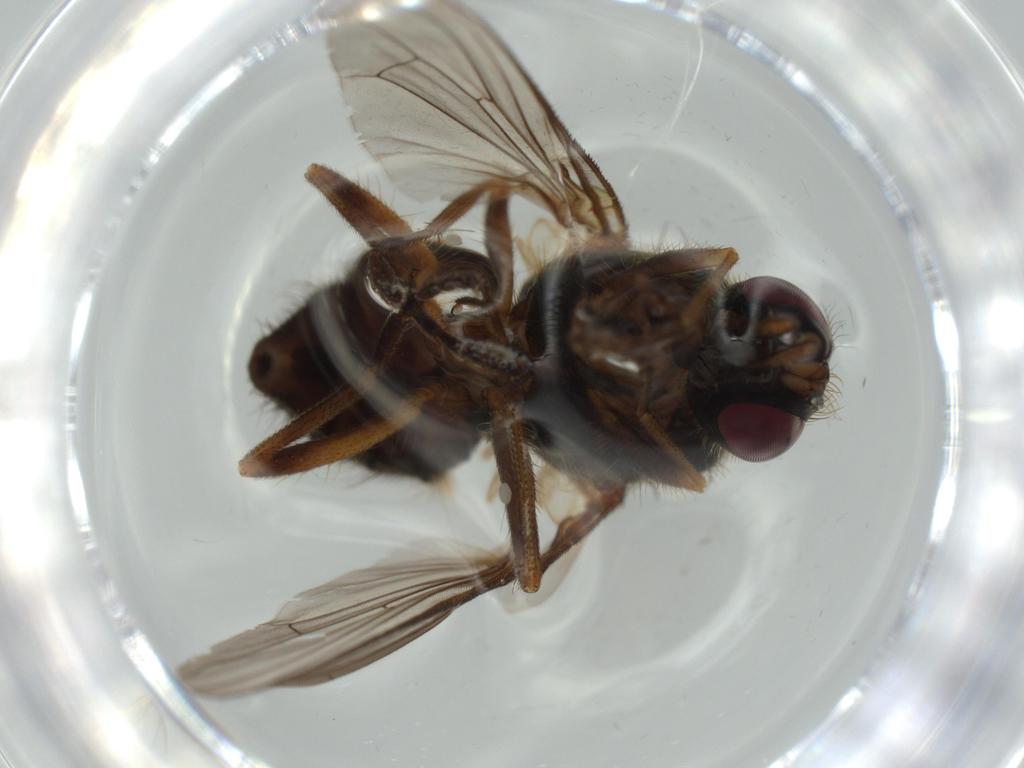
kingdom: Animalia
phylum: Arthropoda
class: Insecta
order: Diptera
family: Chironomidae
